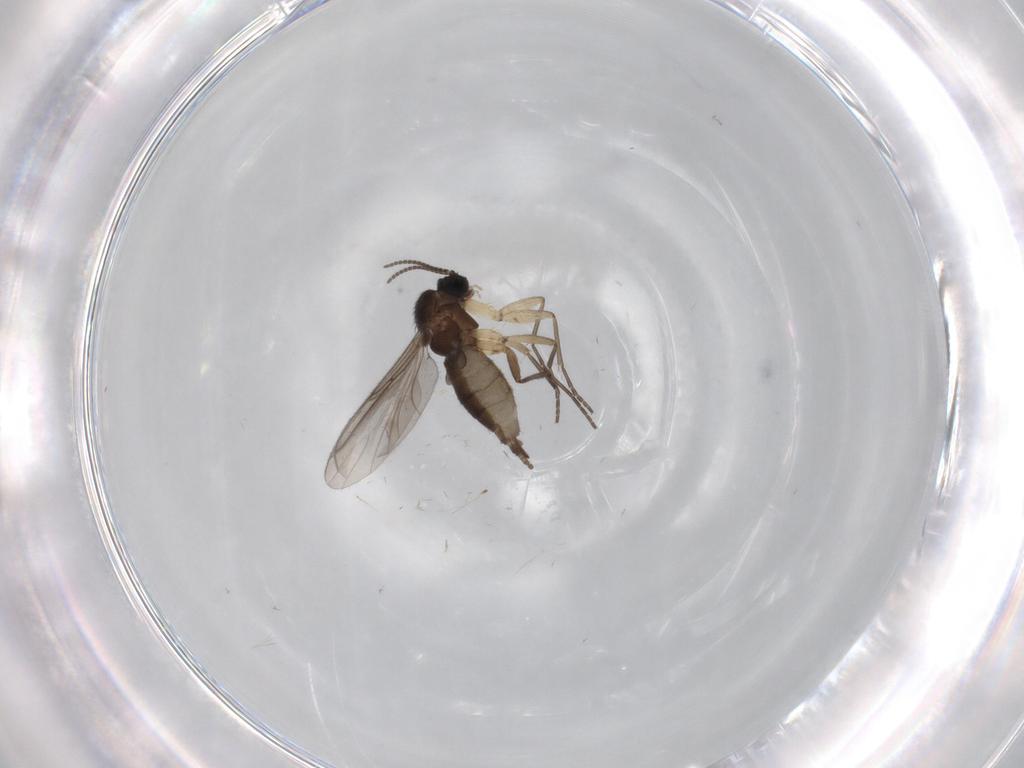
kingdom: Animalia
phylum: Arthropoda
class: Insecta
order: Diptera
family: Sciaridae
